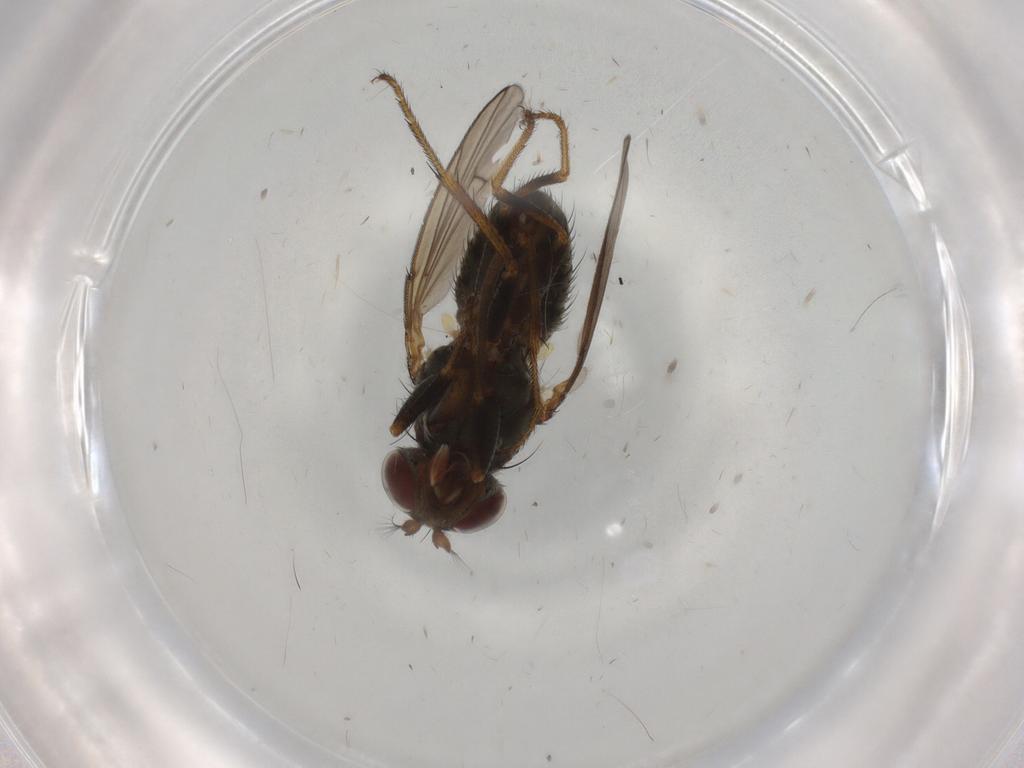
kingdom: Animalia
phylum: Arthropoda
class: Insecta
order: Diptera
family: Ephydridae
